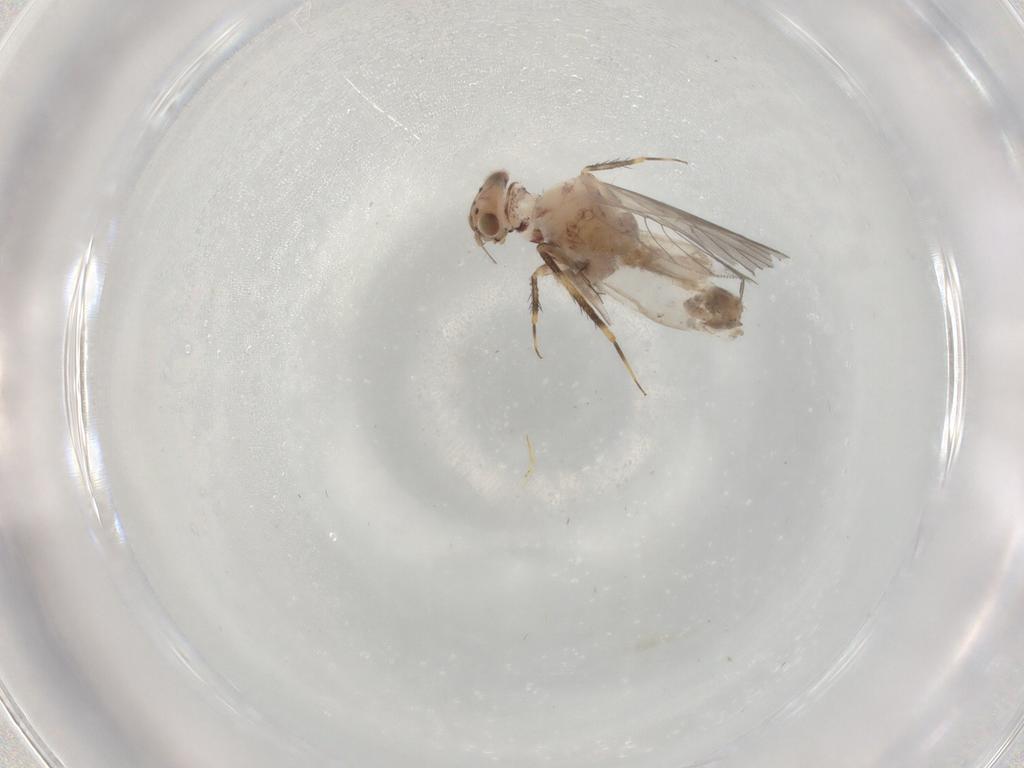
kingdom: Animalia
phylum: Arthropoda
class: Insecta
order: Psocodea
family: Lepidopsocidae
